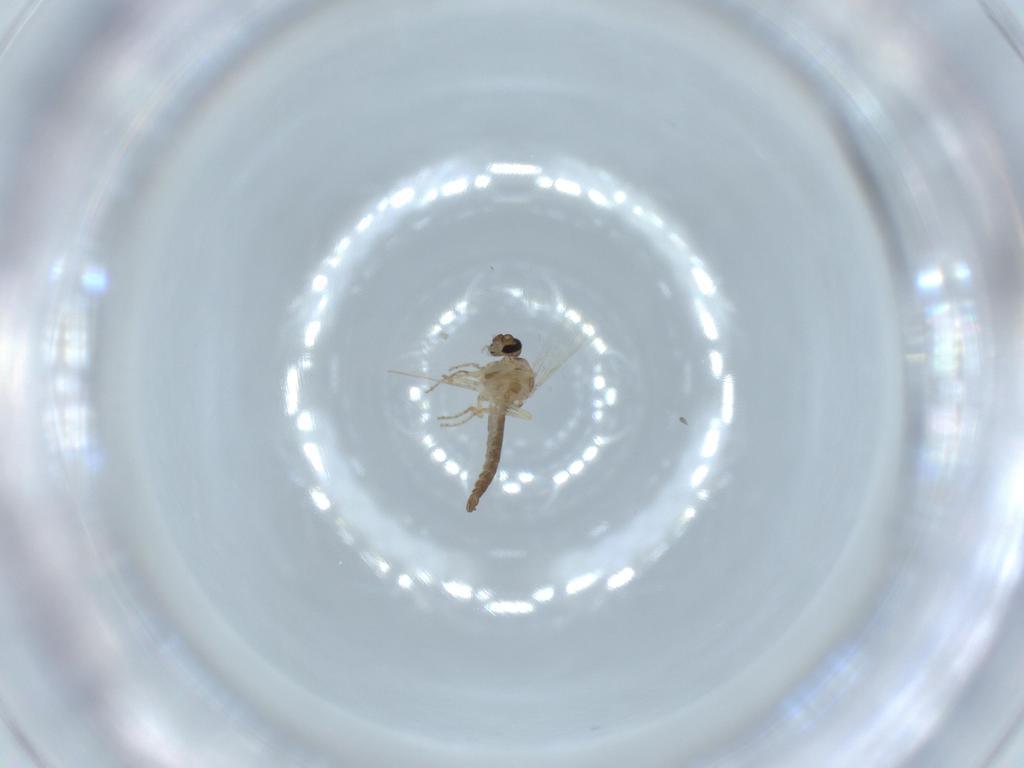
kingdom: Animalia
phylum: Arthropoda
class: Insecta
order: Diptera
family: Ceratopogonidae
